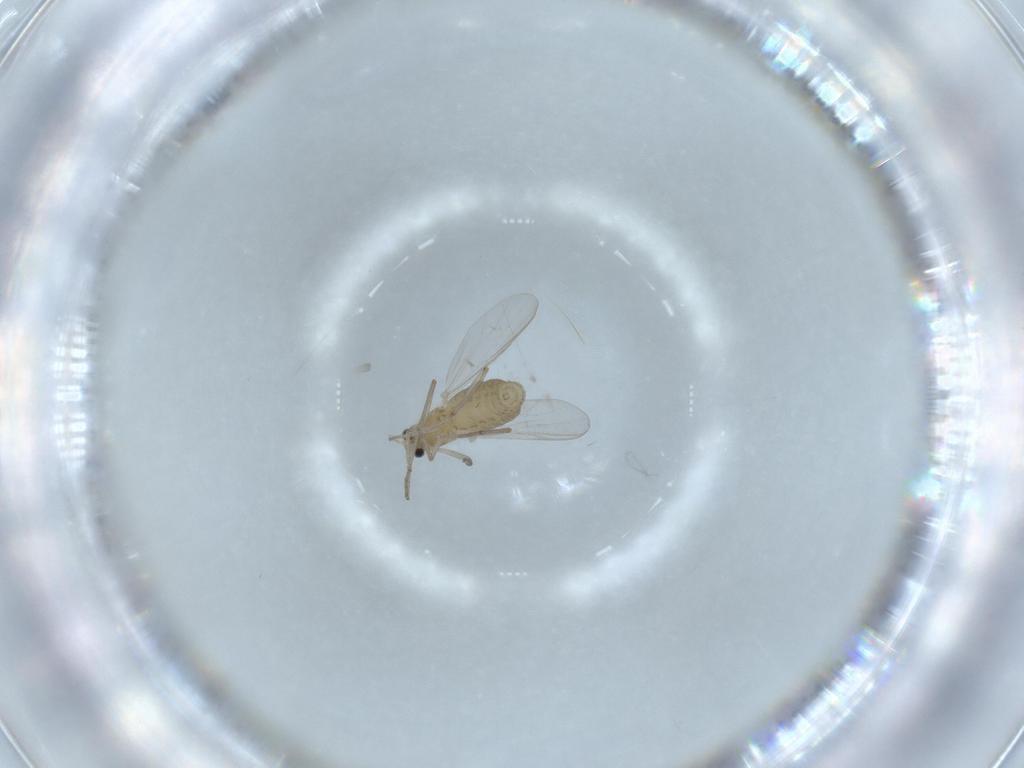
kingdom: Animalia
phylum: Arthropoda
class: Insecta
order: Diptera
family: Chironomidae
